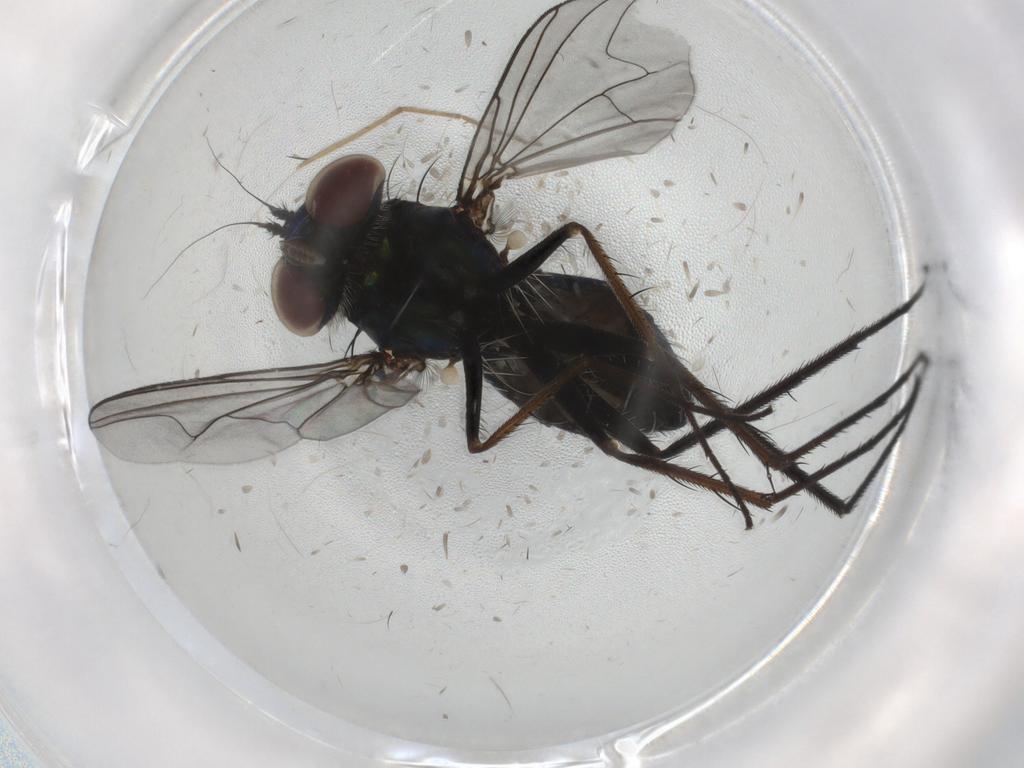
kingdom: Animalia
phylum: Arthropoda
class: Insecta
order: Diptera
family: Dolichopodidae
